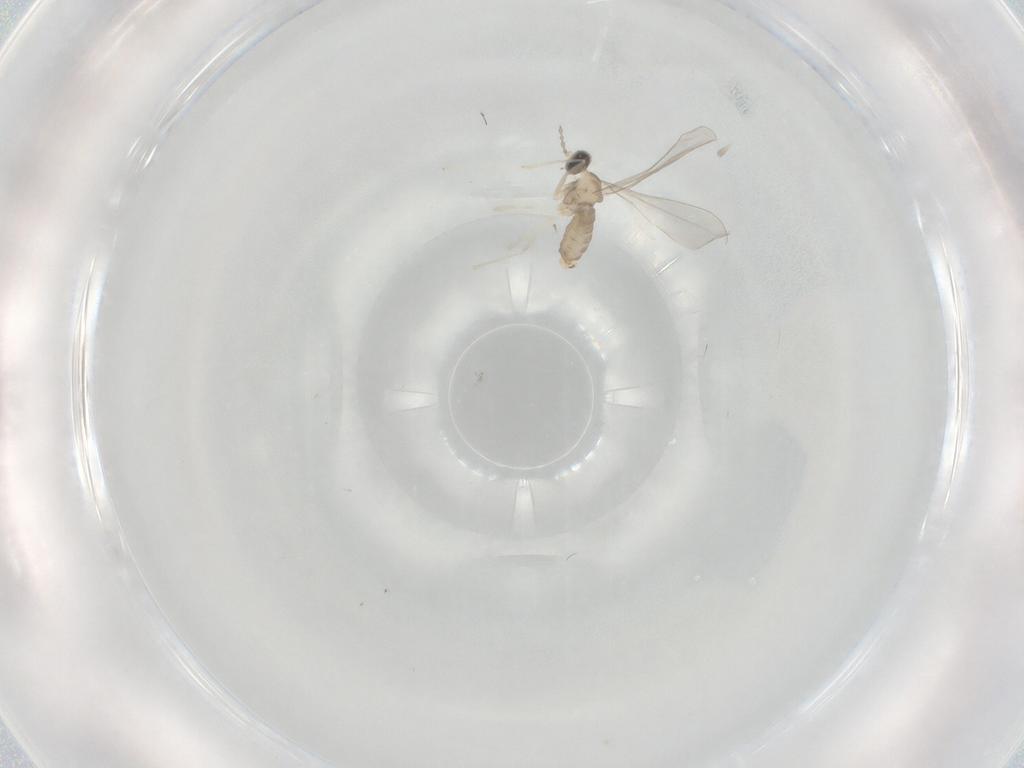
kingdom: Animalia
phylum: Arthropoda
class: Insecta
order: Diptera
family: Cecidomyiidae
